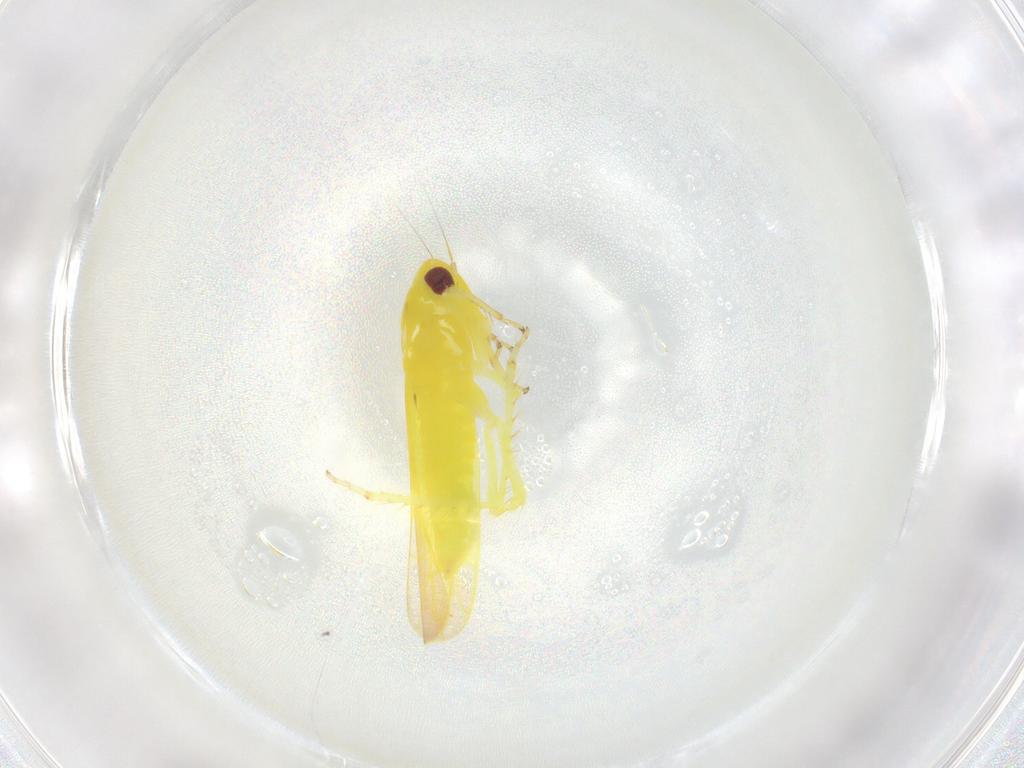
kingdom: Animalia
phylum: Arthropoda
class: Insecta
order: Hemiptera
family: Cicadellidae
